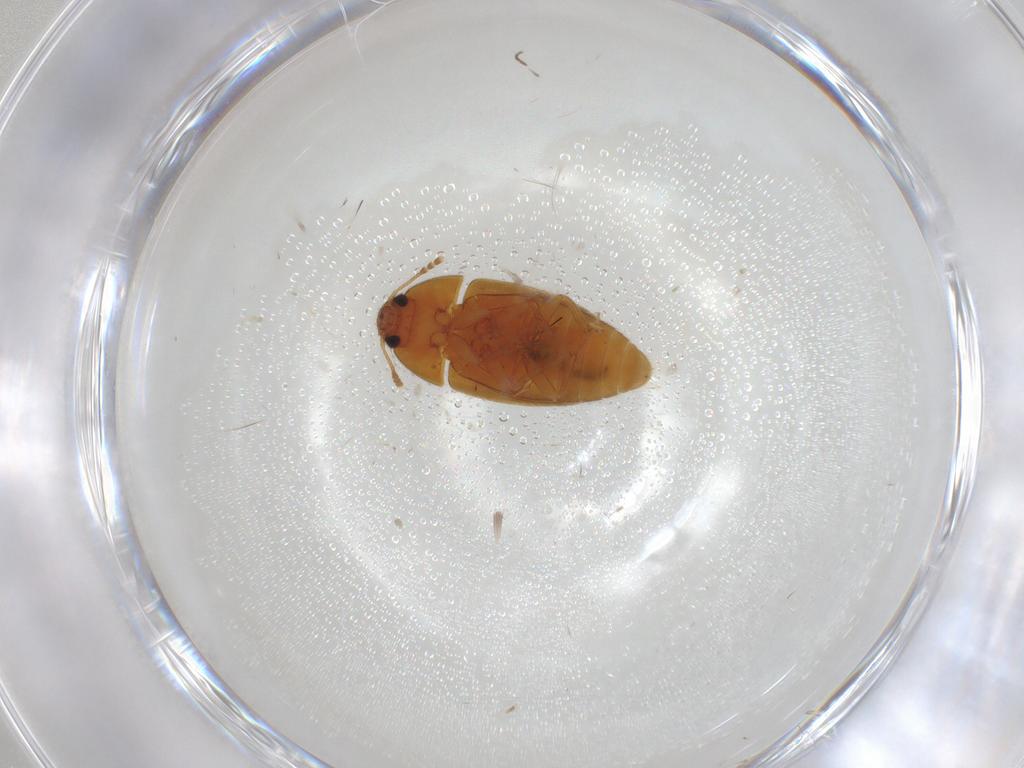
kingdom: Animalia
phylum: Arthropoda
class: Insecta
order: Coleoptera
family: Mycetophagidae
